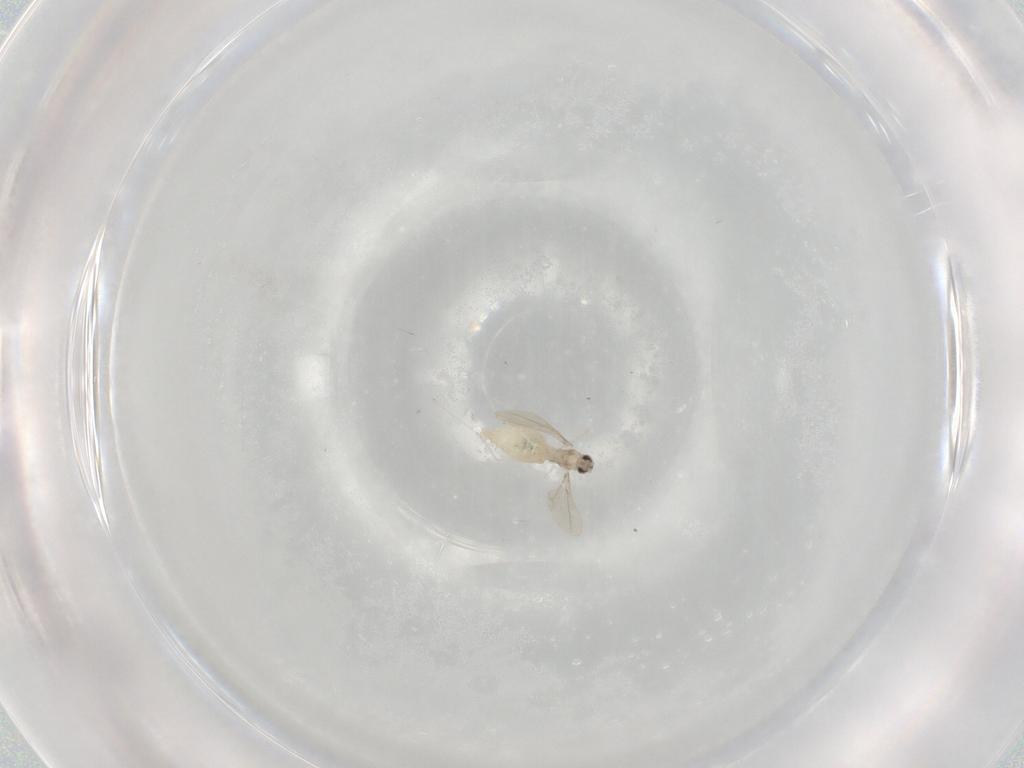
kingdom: Animalia
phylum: Arthropoda
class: Insecta
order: Diptera
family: Cecidomyiidae
